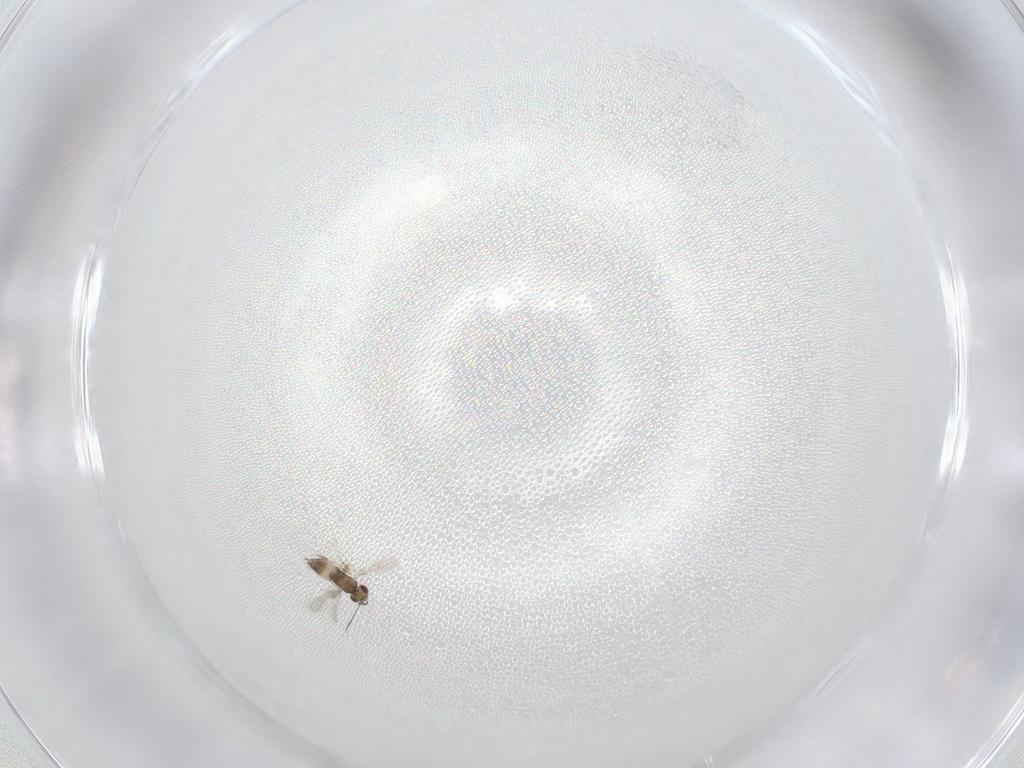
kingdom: Animalia
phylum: Arthropoda
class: Insecta
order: Hymenoptera
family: Mymaridae
